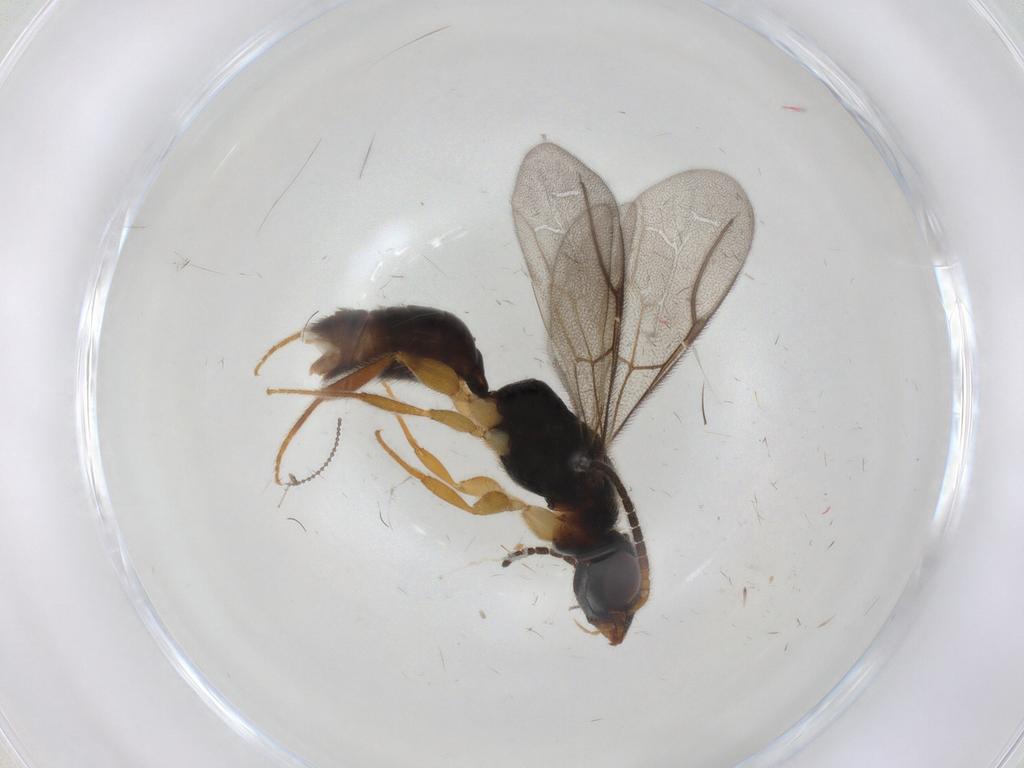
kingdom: Animalia
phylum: Arthropoda
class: Insecta
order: Hymenoptera
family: Bethylidae
